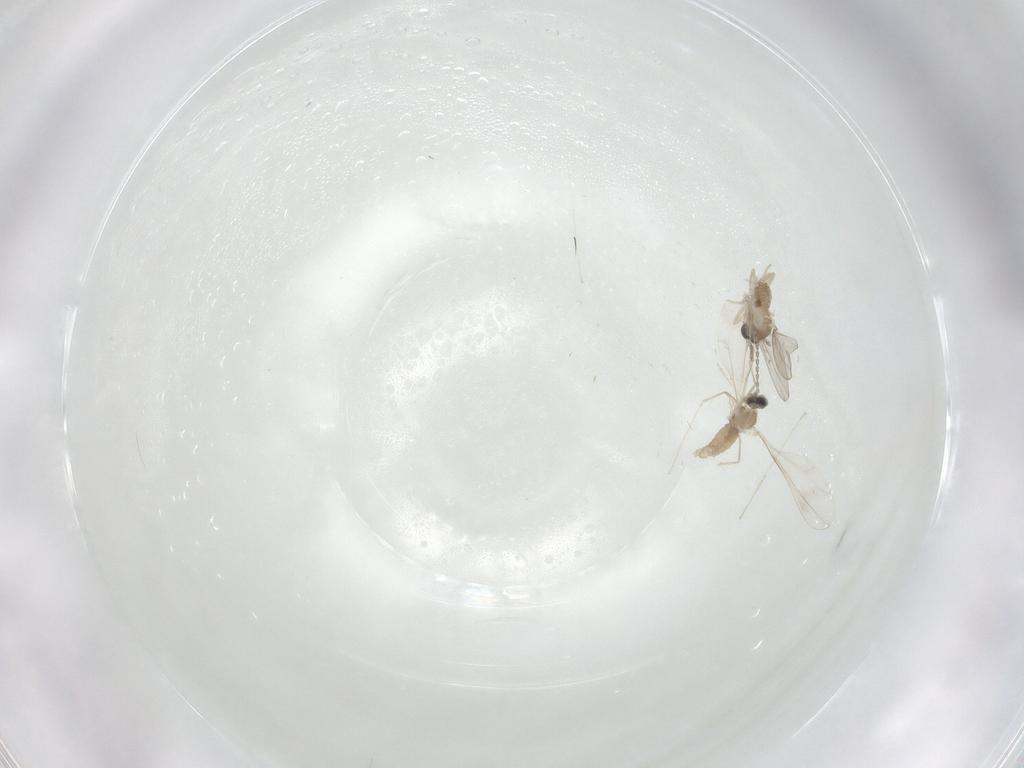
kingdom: Animalia
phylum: Arthropoda
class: Insecta
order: Diptera
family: Cecidomyiidae
